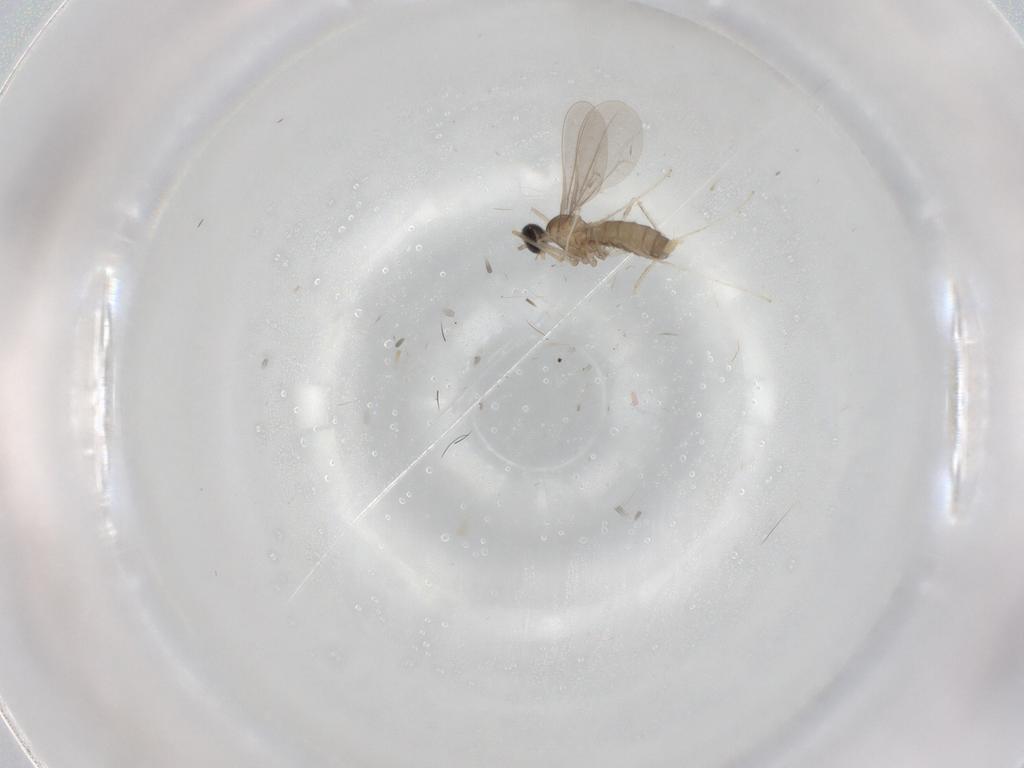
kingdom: Animalia
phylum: Arthropoda
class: Insecta
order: Diptera
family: Cecidomyiidae
